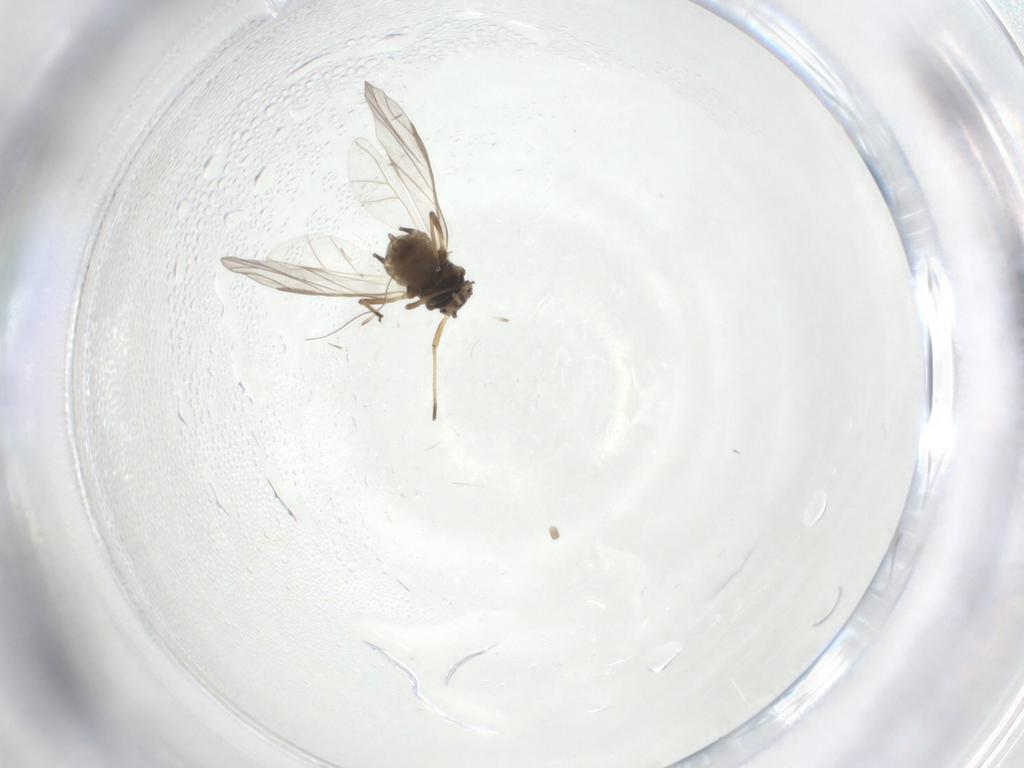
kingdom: Animalia
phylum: Arthropoda
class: Insecta
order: Hemiptera
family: Aphididae
